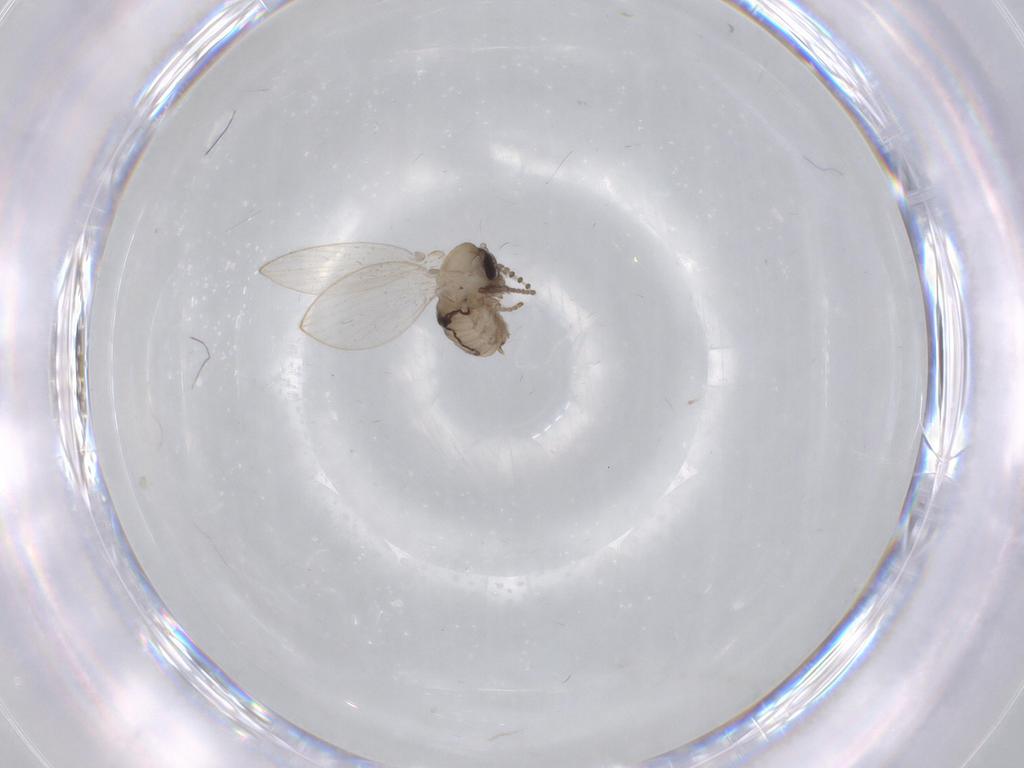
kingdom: Animalia
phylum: Arthropoda
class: Insecta
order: Diptera
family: Psychodidae
